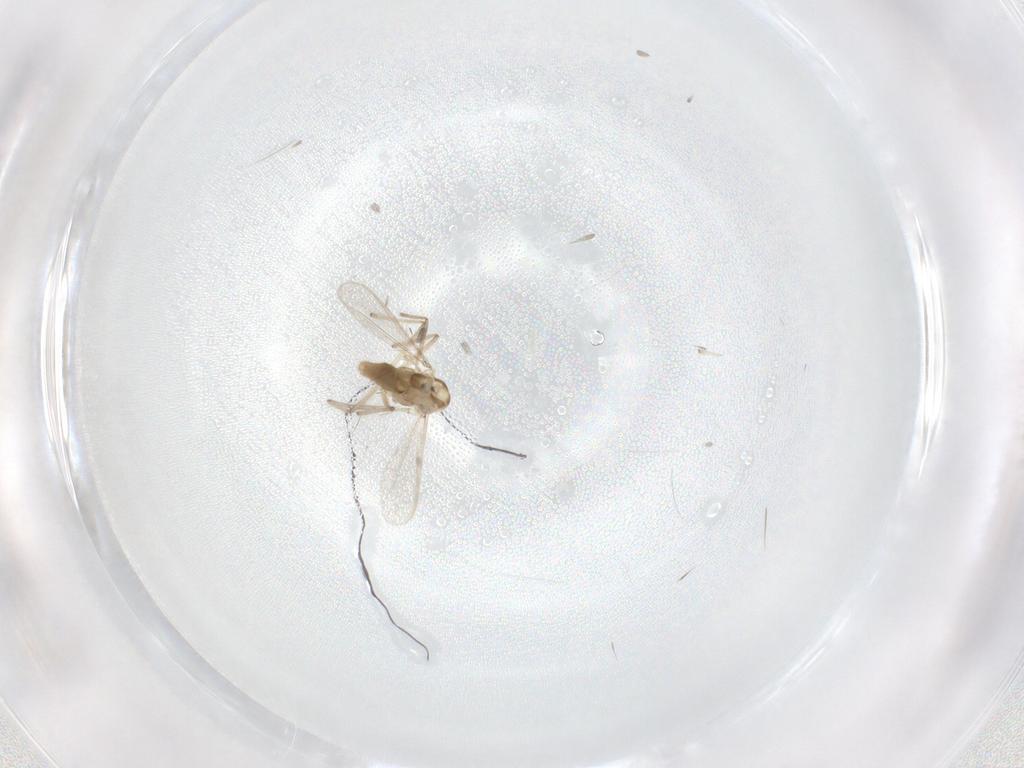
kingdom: Animalia
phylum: Arthropoda
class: Insecta
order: Diptera
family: Chironomidae
